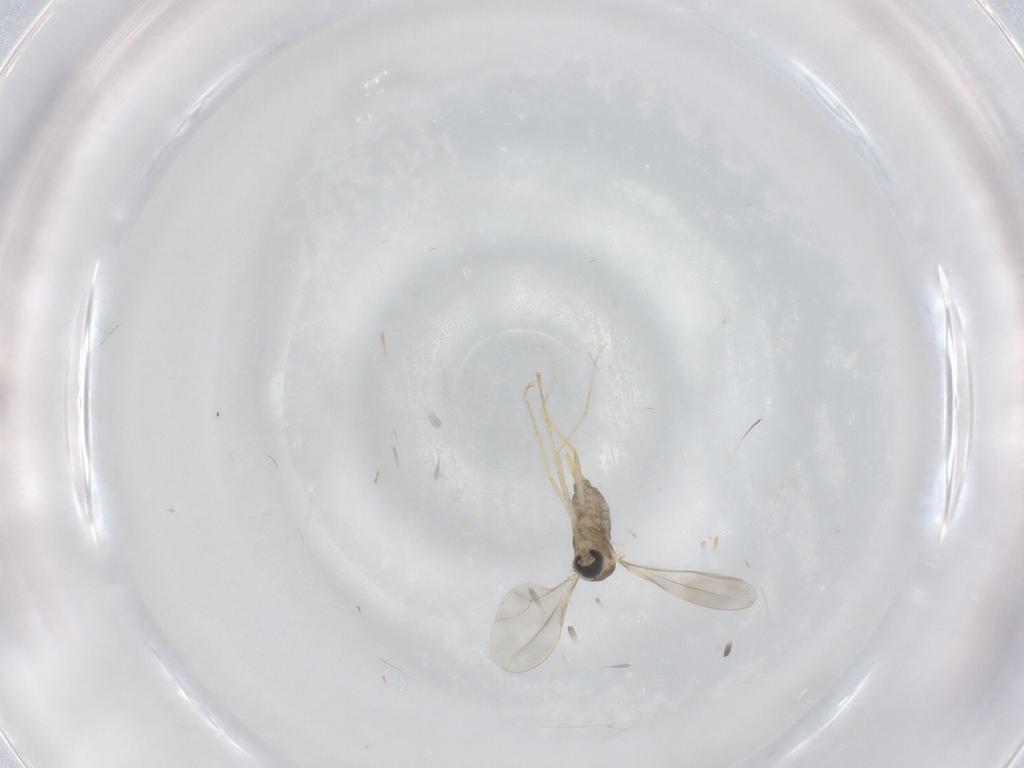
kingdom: Animalia
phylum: Arthropoda
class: Insecta
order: Diptera
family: Cecidomyiidae
